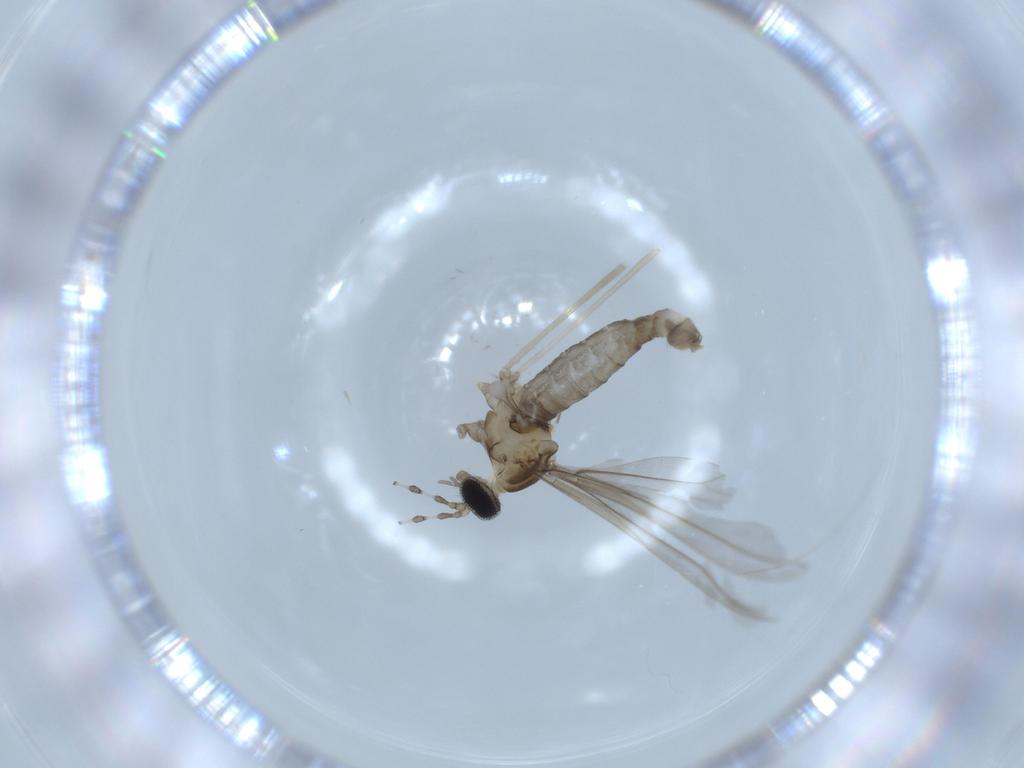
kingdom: Animalia
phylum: Arthropoda
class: Insecta
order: Diptera
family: Cecidomyiidae
